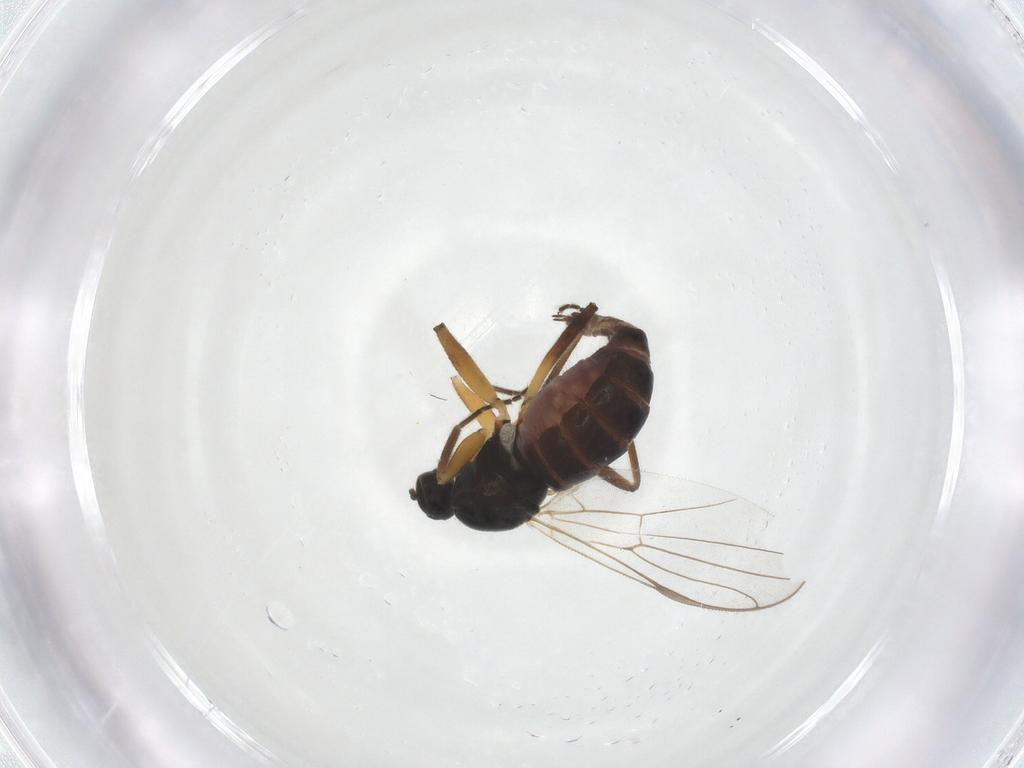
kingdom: Animalia
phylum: Arthropoda
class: Insecta
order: Diptera
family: Hybotidae
